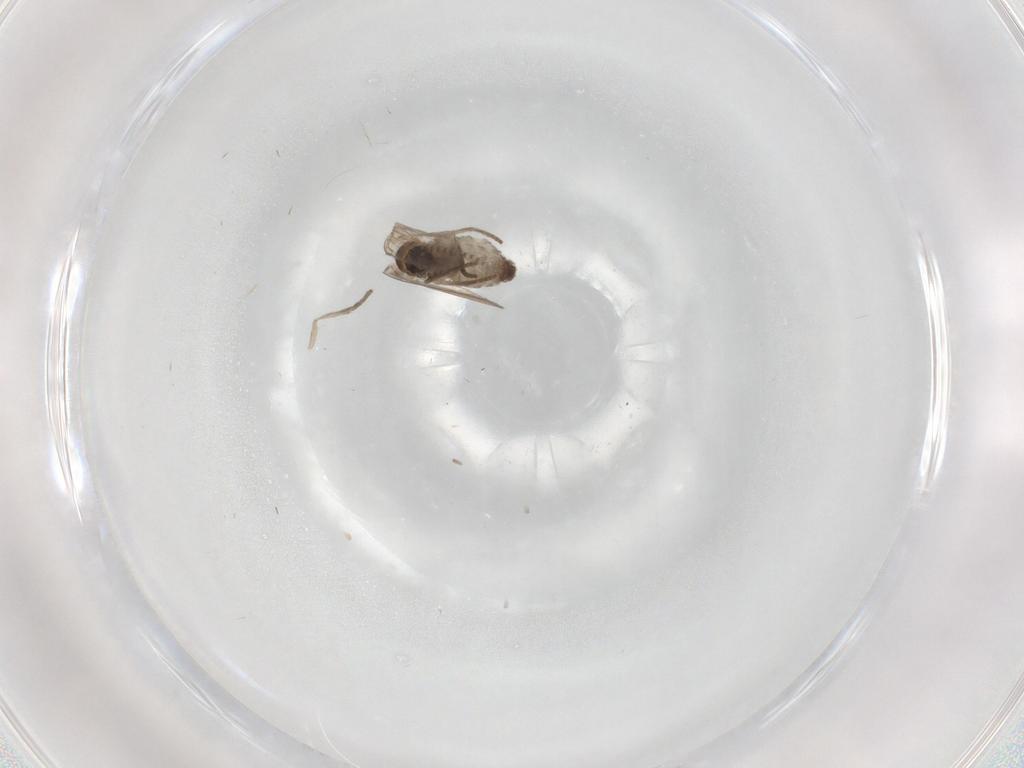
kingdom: Animalia
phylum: Arthropoda
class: Insecta
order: Diptera
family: Psychodidae
